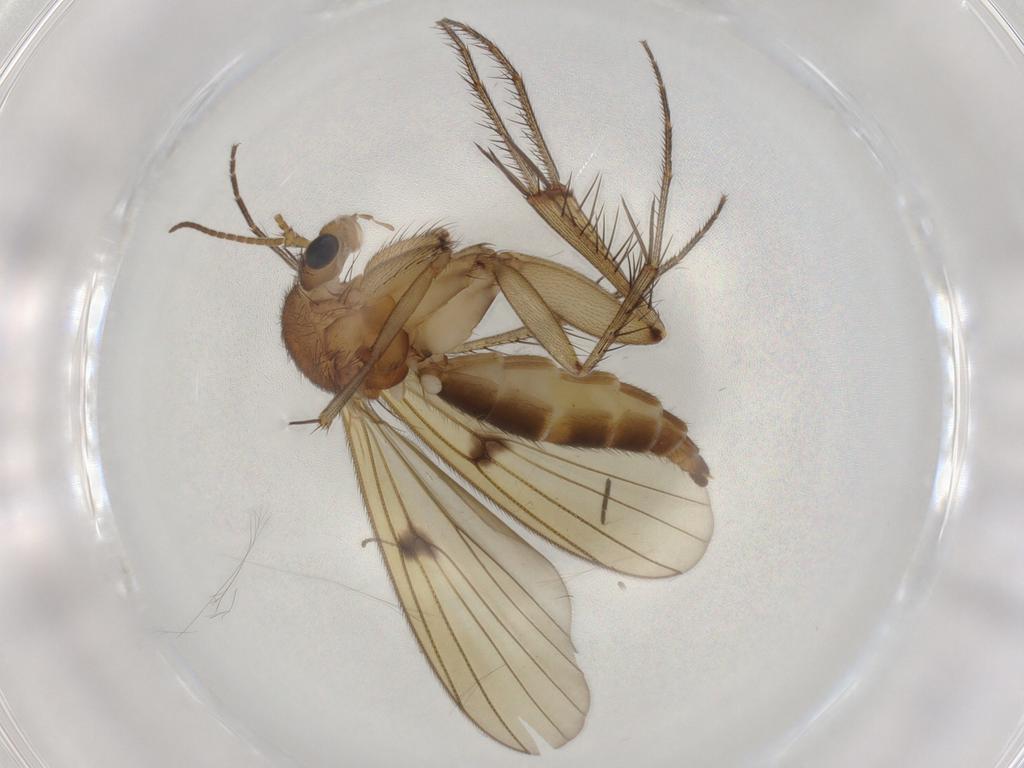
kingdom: Animalia
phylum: Arthropoda
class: Insecta
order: Diptera
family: Mycetophilidae
